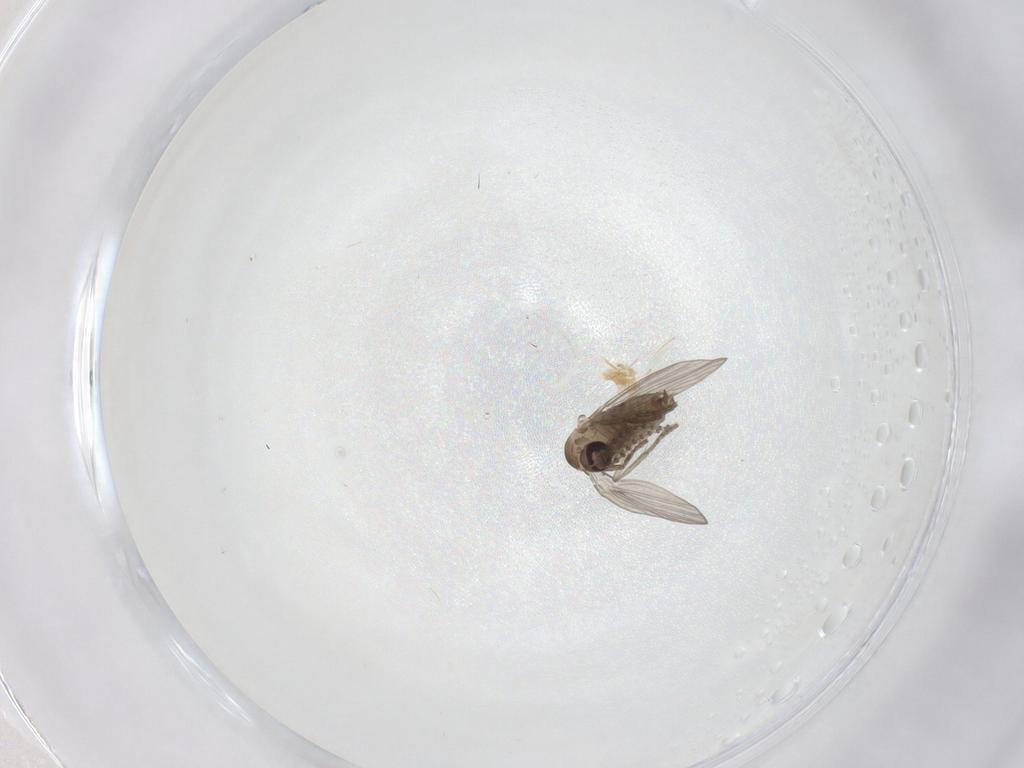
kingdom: Animalia
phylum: Arthropoda
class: Insecta
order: Diptera
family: Psychodidae
